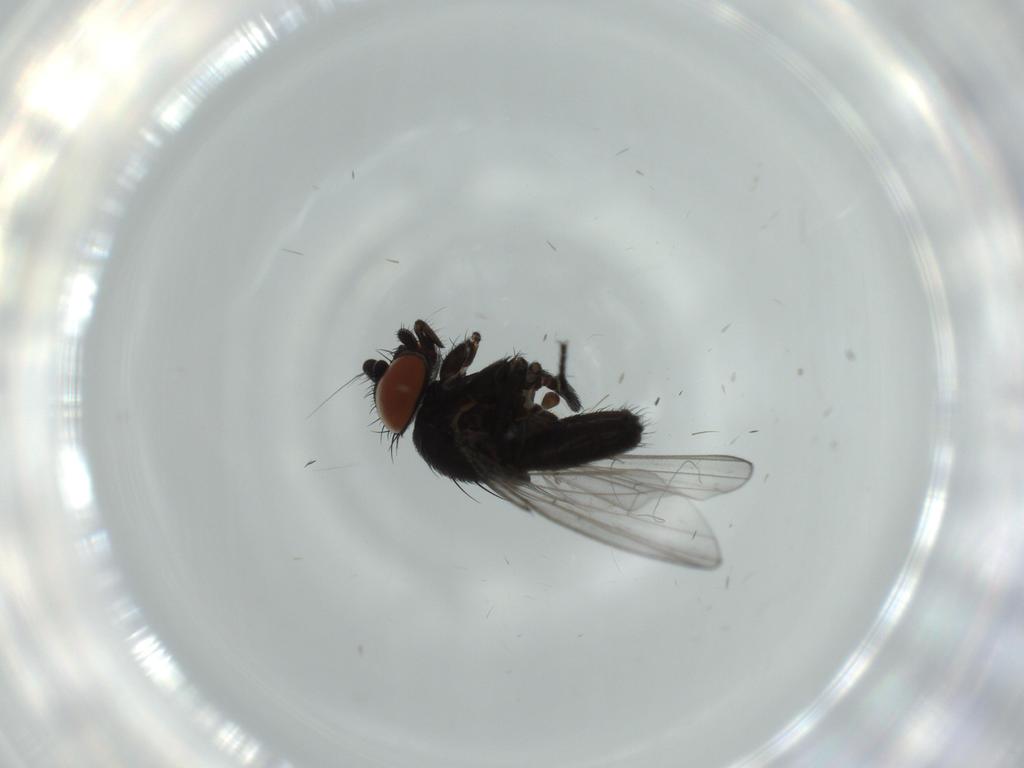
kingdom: Animalia
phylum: Arthropoda
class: Insecta
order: Diptera
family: Milichiidae
